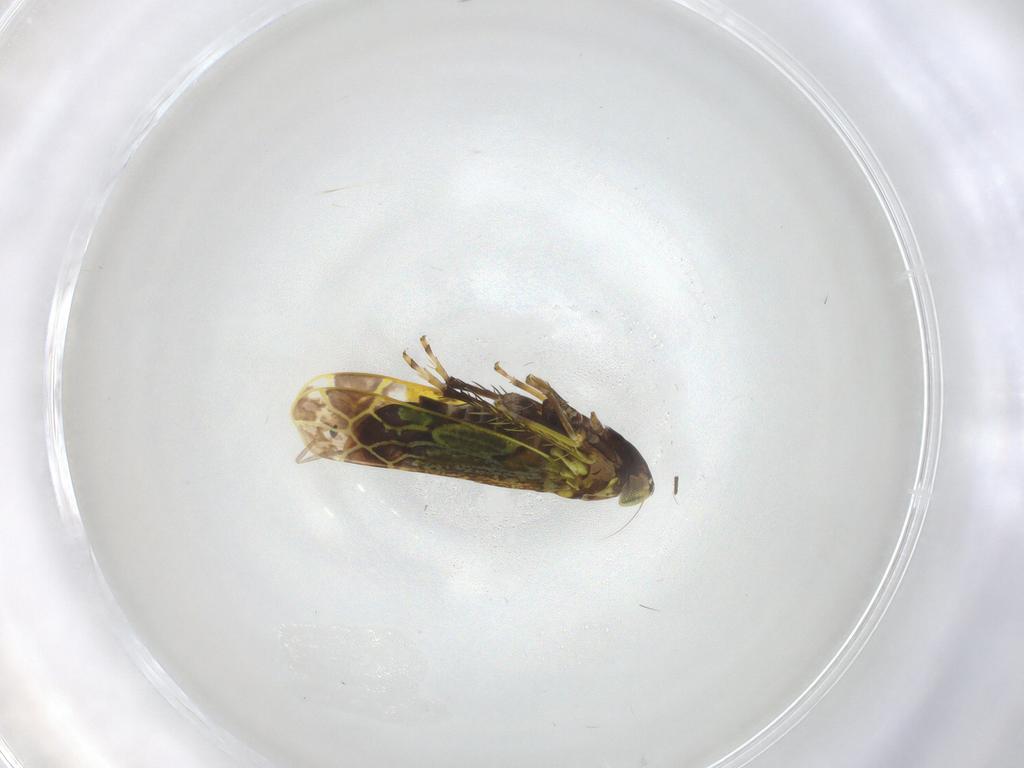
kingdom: Animalia
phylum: Arthropoda
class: Insecta
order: Hemiptera
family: Cicadellidae
